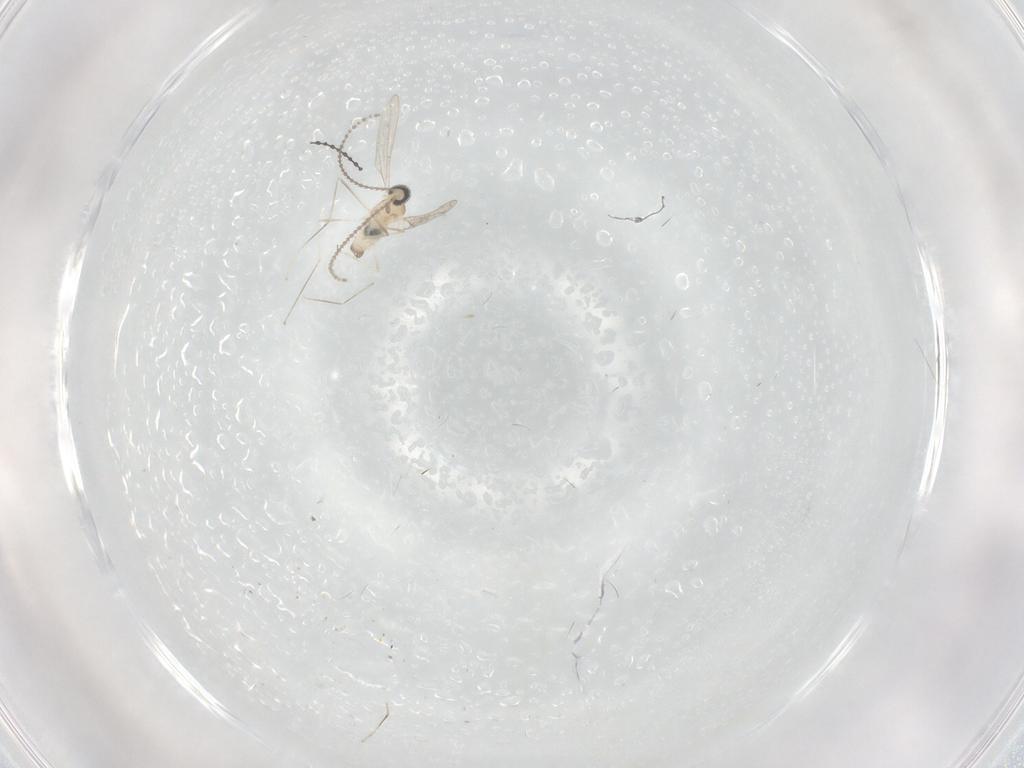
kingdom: Animalia
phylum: Arthropoda
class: Insecta
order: Diptera
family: Cecidomyiidae
